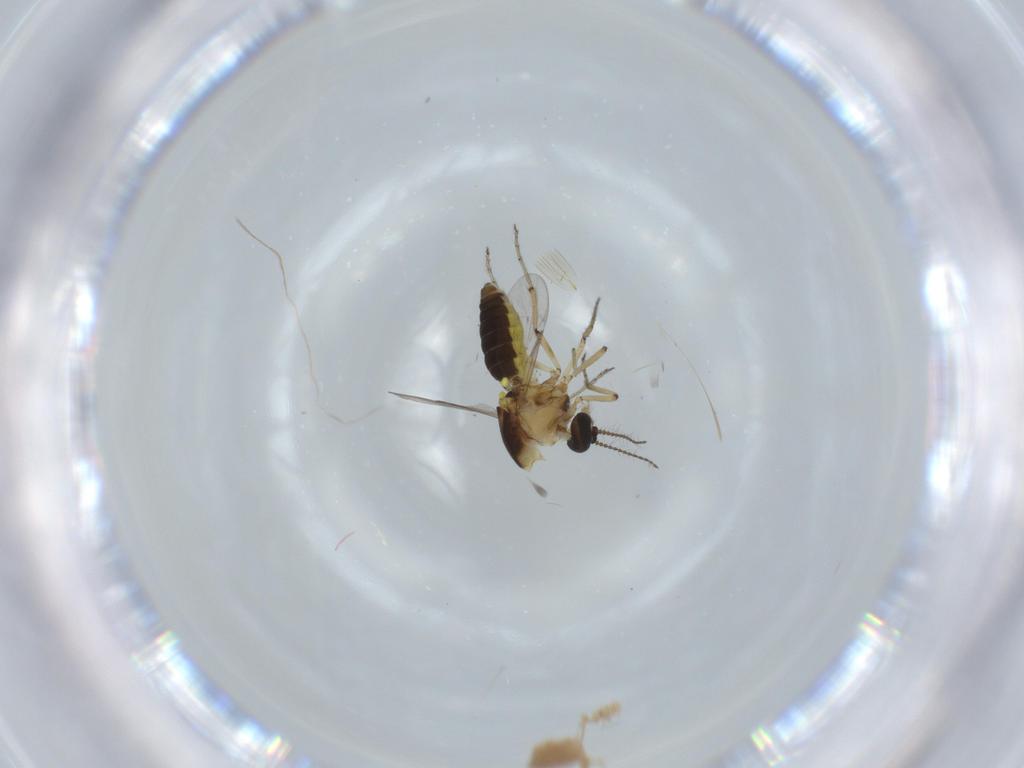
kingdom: Animalia
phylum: Arthropoda
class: Insecta
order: Diptera
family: Ceratopogonidae
